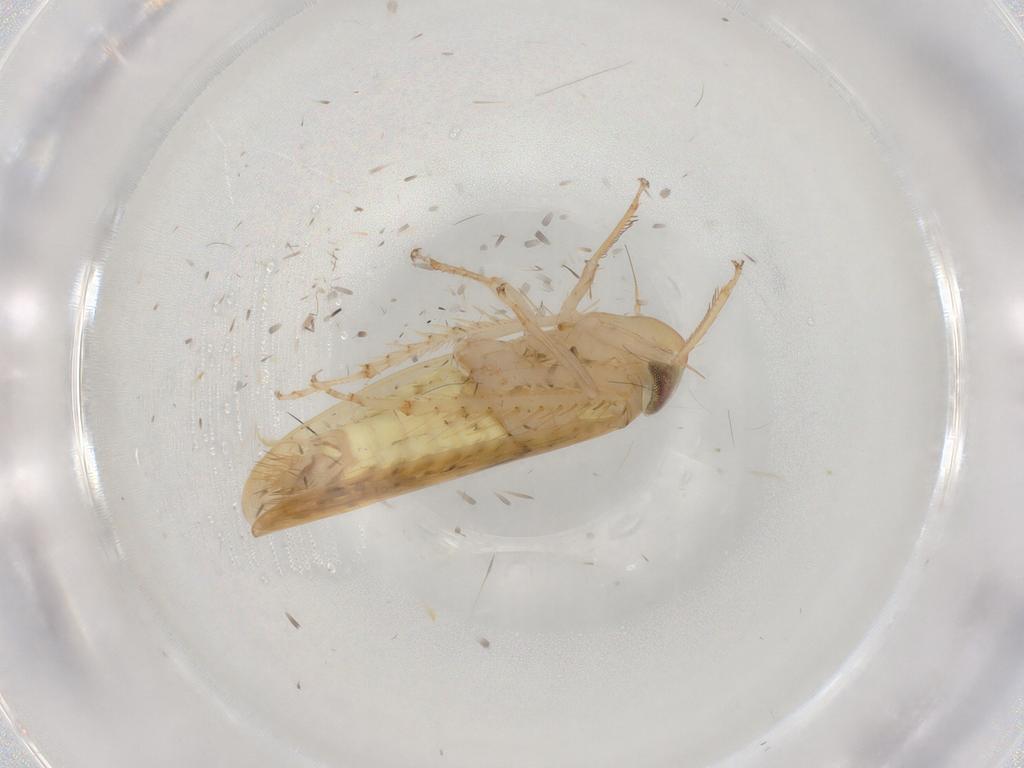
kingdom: Animalia
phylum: Arthropoda
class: Insecta
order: Hemiptera
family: Cicadellidae
